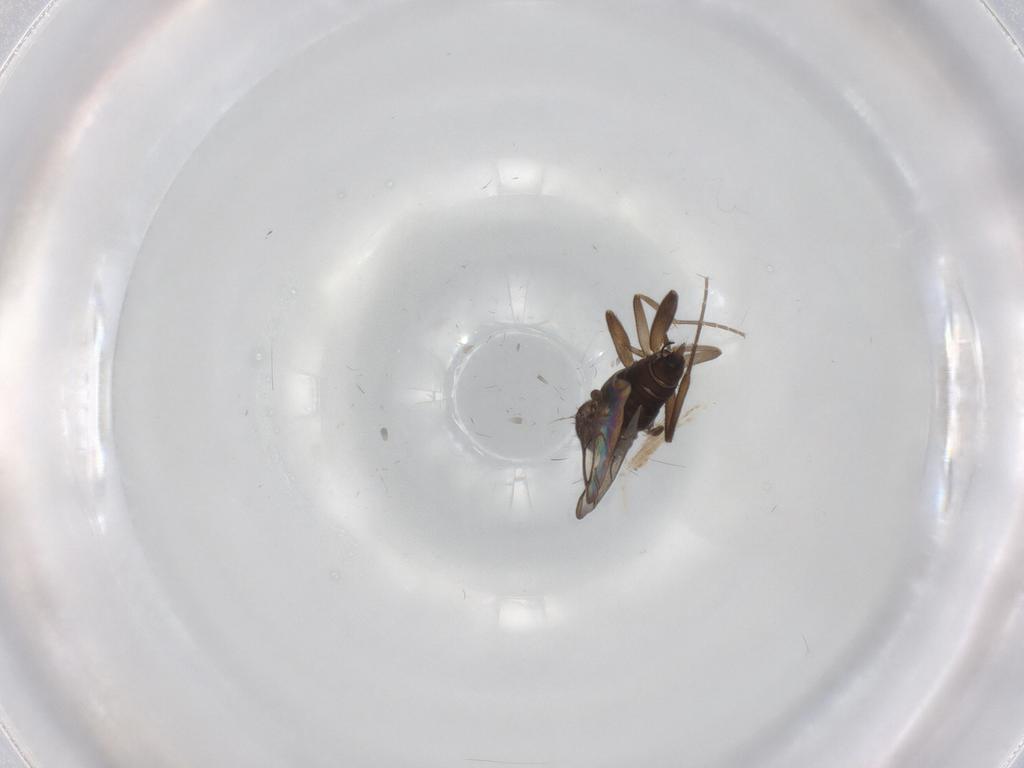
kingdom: Animalia
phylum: Arthropoda
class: Insecta
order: Diptera
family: Cecidomyiidae
